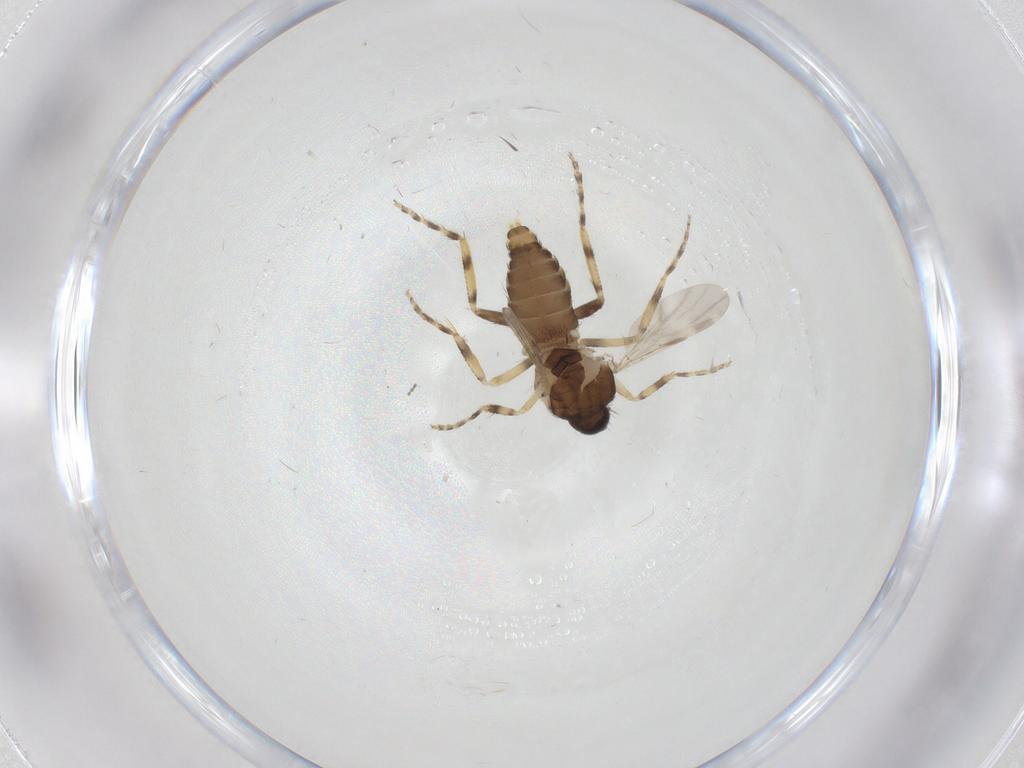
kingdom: Animalia
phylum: Arthropoda
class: Insecta
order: Diptera
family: Ceratopogonidae
